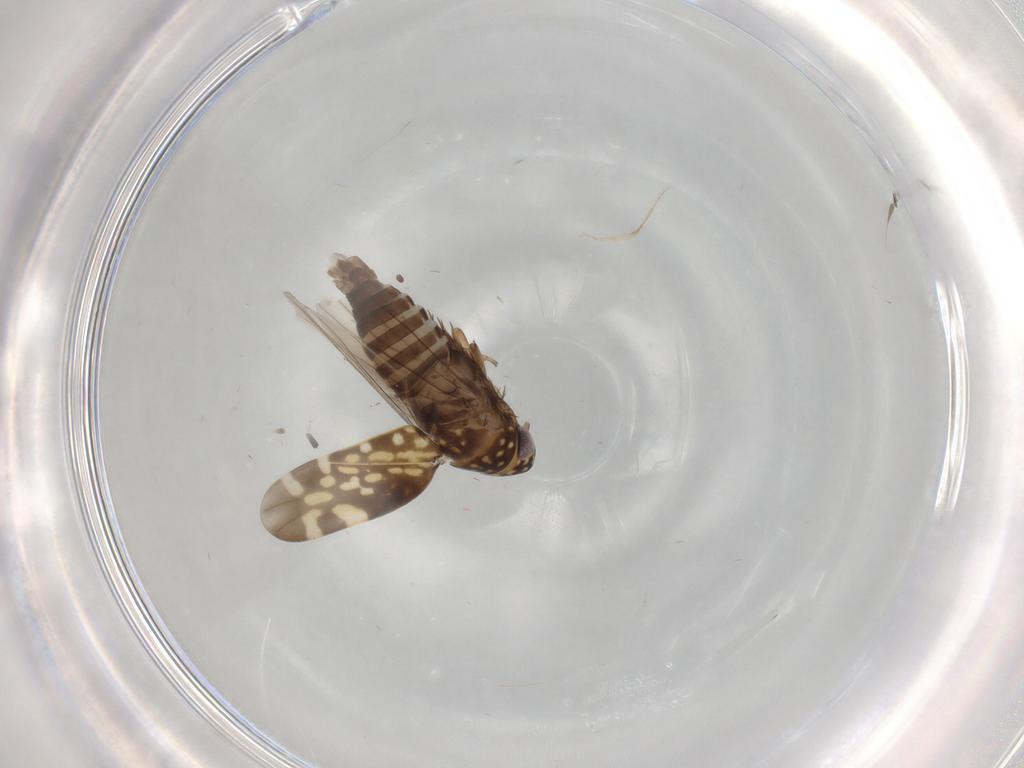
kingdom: Animalia
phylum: Arthropoda
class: Insecta
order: Hemiptera
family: Cicadellidae
